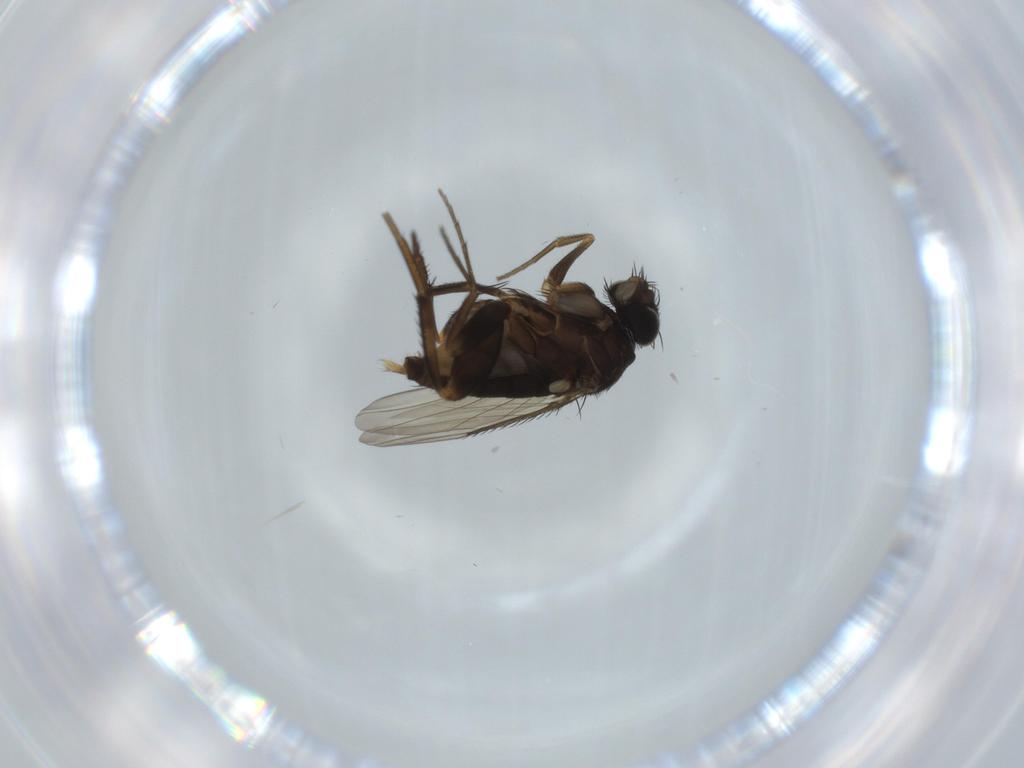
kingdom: Animalia
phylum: Arthropoda
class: Insecta
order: Diptera
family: Phoridae
